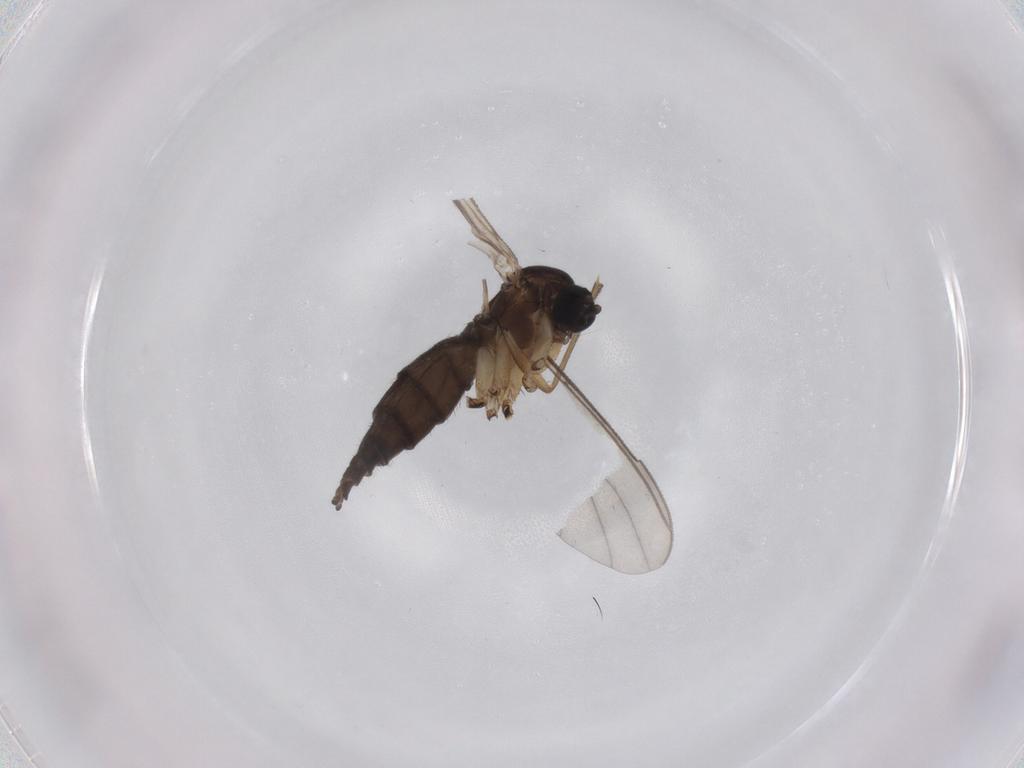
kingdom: Animalia
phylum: Arthropoda
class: Insecta
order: Diptera
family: Sciaridae
